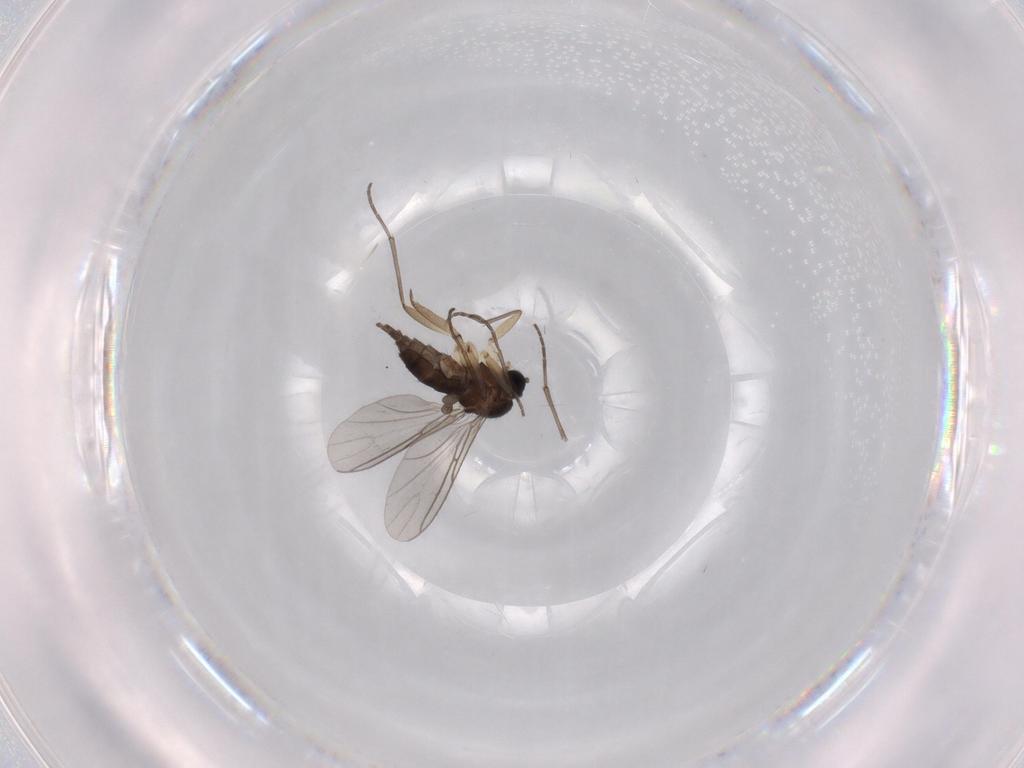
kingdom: Animalia
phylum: Arthropoda
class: Insecta
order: Diptera
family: Sciaridae
